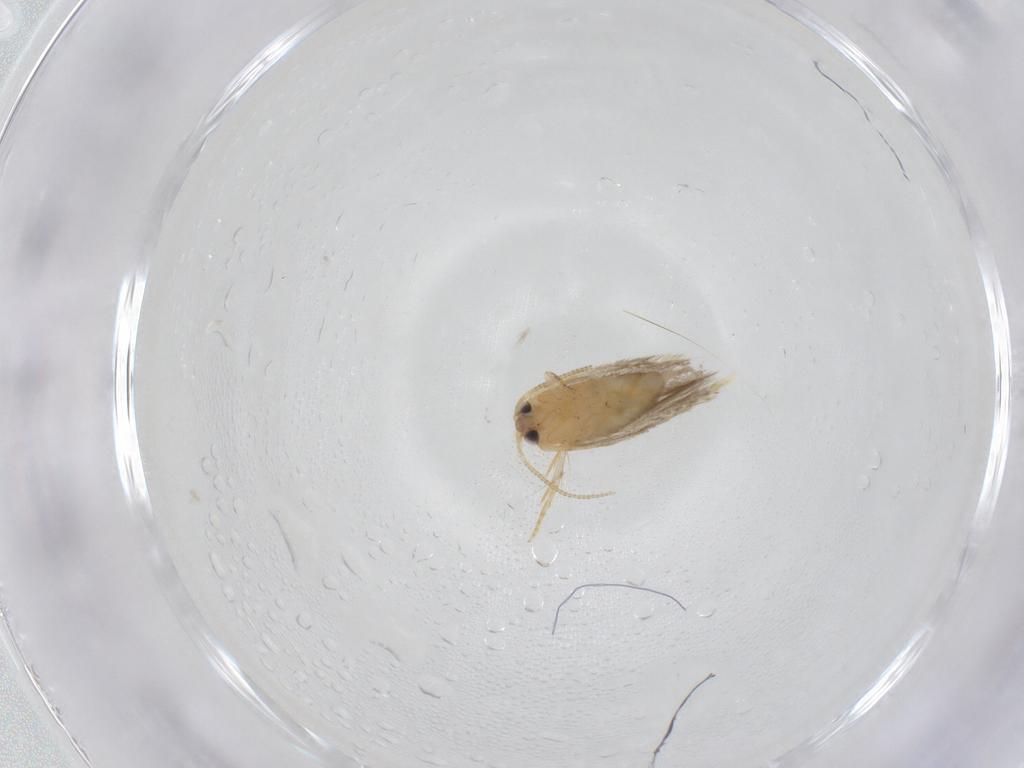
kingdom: Animalia
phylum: Arthropoda
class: Insecta
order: Lepidoptera
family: Nepticulidae
